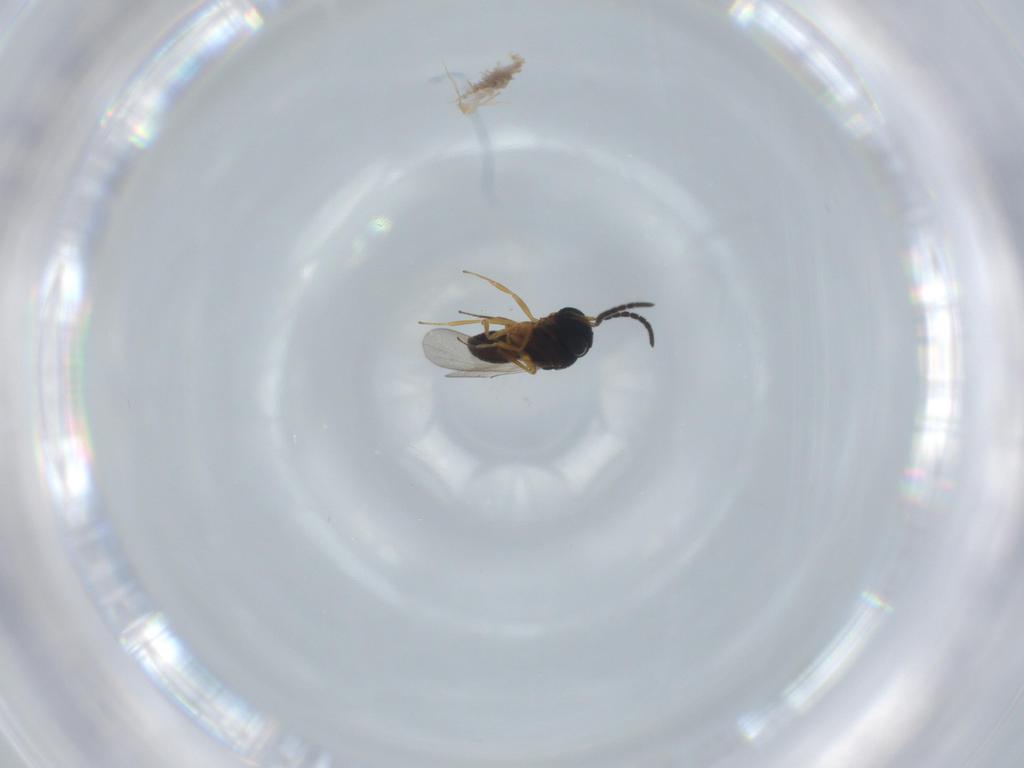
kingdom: Animalia
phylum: Arthropoda
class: Insecta
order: Hymenoptera
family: Scelionidae
